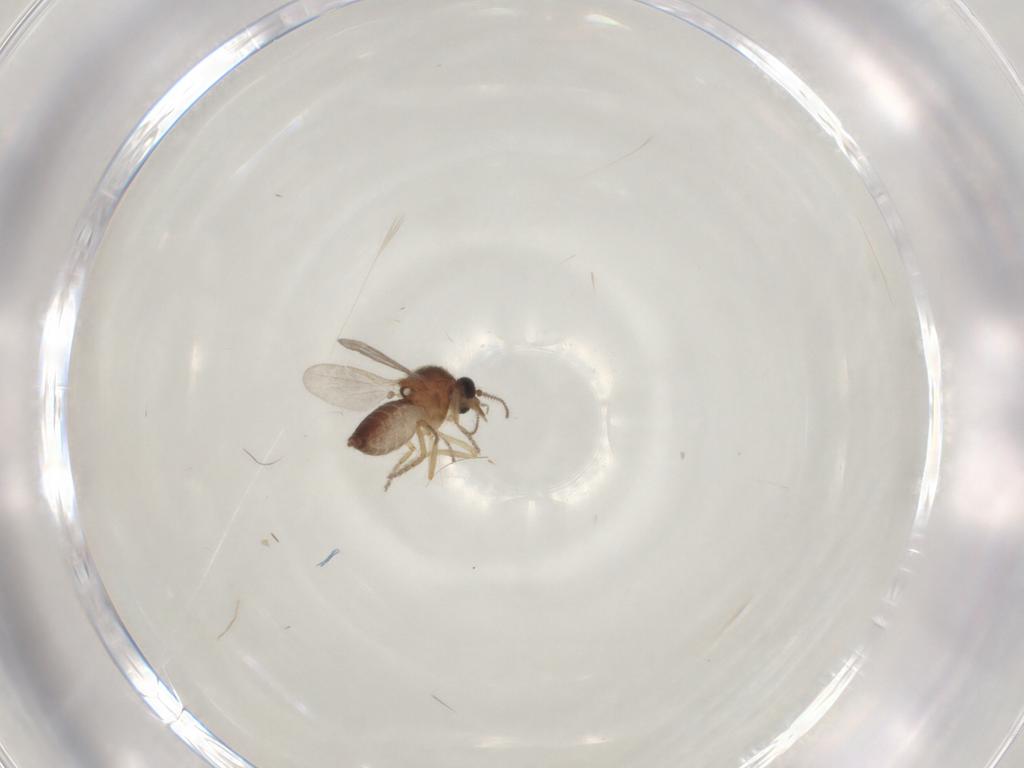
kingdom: Animalia
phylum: Arthropoda
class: Insecta
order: Diptera
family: Ceratopogonidae
